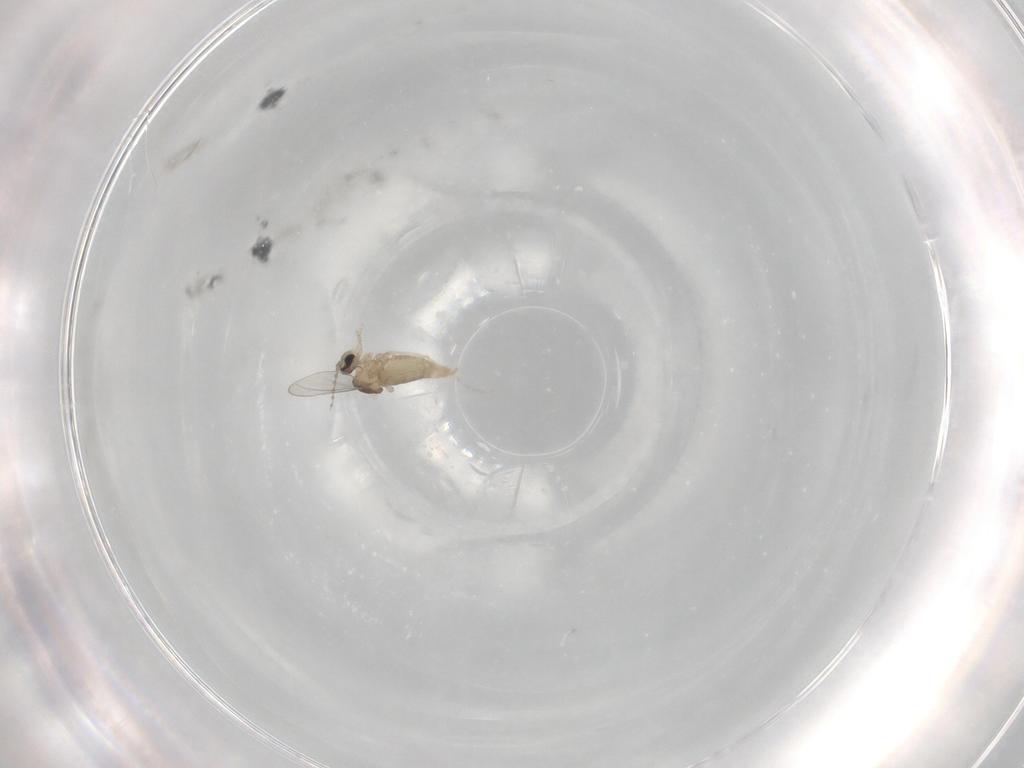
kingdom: Animalia
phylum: Arthropoda
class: Insecta
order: Diptera
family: Cecidomyiidae
